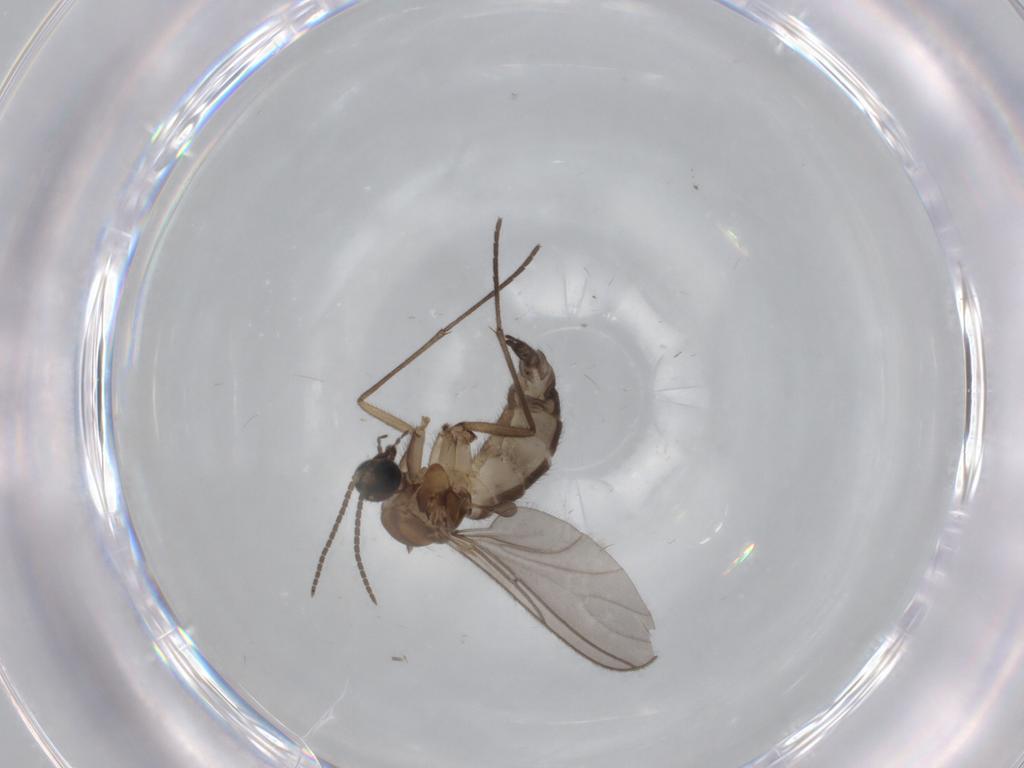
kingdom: Animalia
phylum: Arthropoda
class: Insecta
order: Diptera
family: Sciaridae
